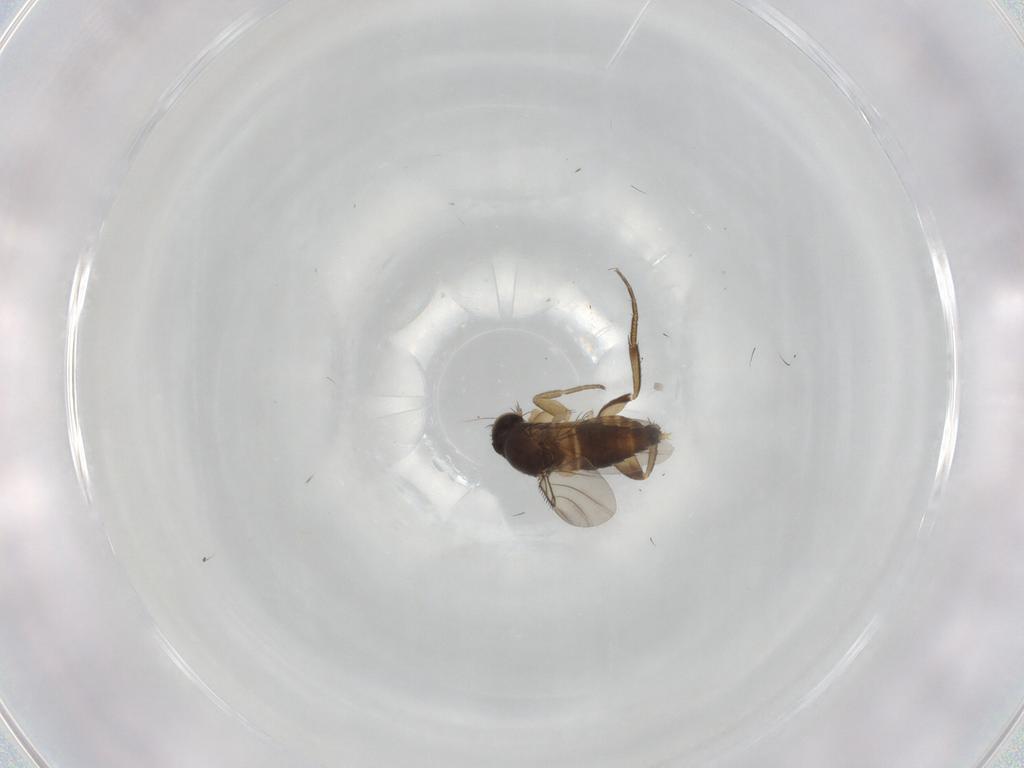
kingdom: Animalia
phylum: Arthropoda
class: Insecta
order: Diptera
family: Phoridae
